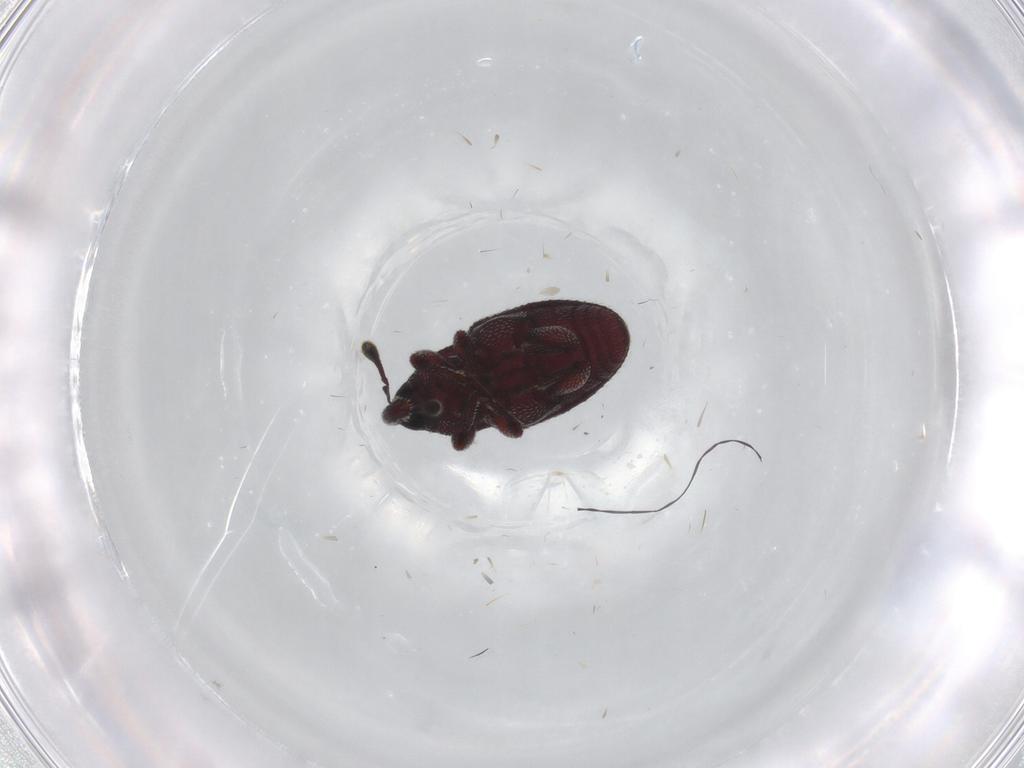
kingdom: Animalia
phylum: Arthropoda
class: Insecta
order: Coleoptera
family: Curculionidae
